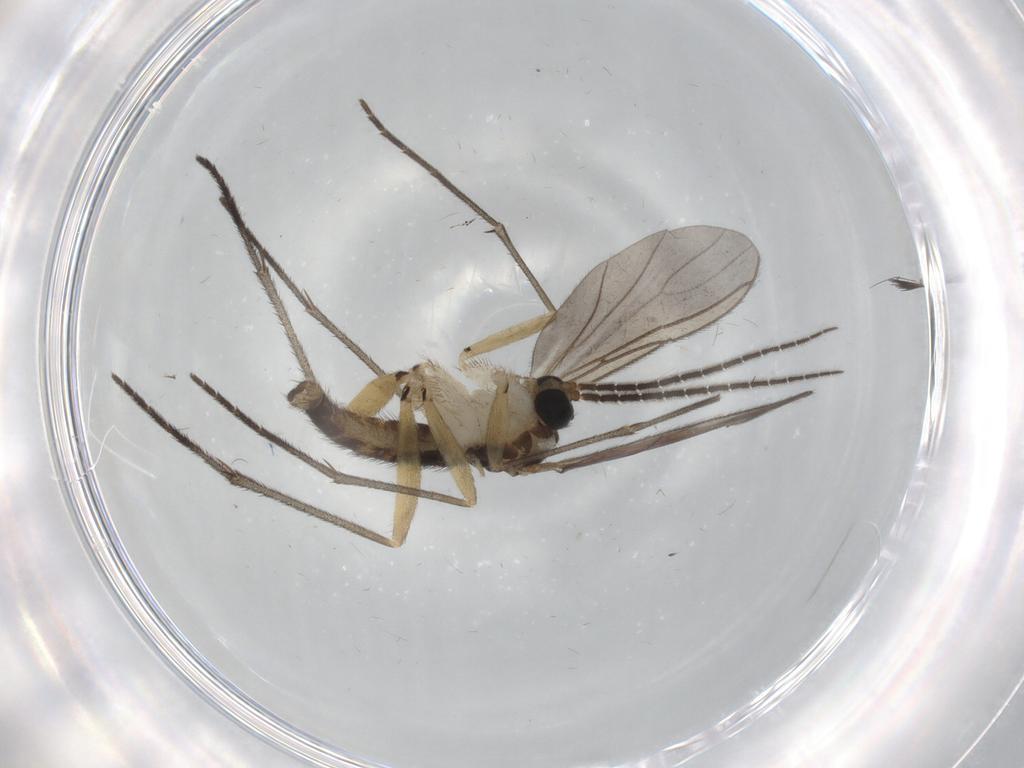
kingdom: Animalia
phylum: Arthropoda
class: Insecta
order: Diptera
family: Sciaridae
